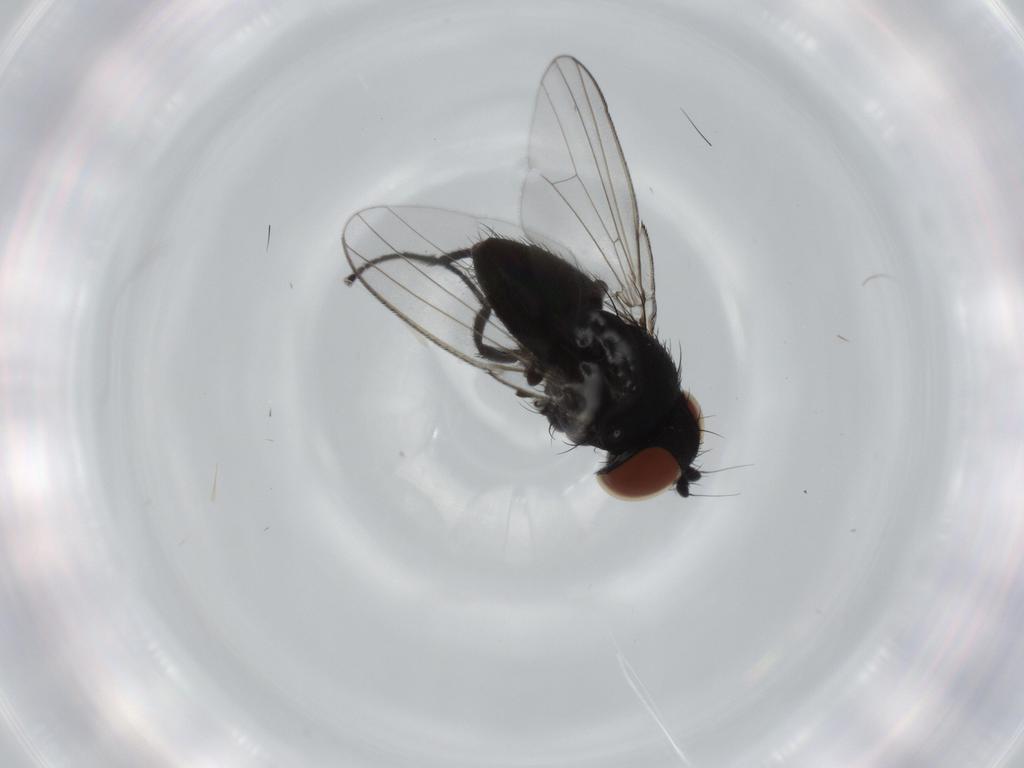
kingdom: Animalia
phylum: Arthropoda
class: Insecta
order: Diptera
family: Milichiidae
